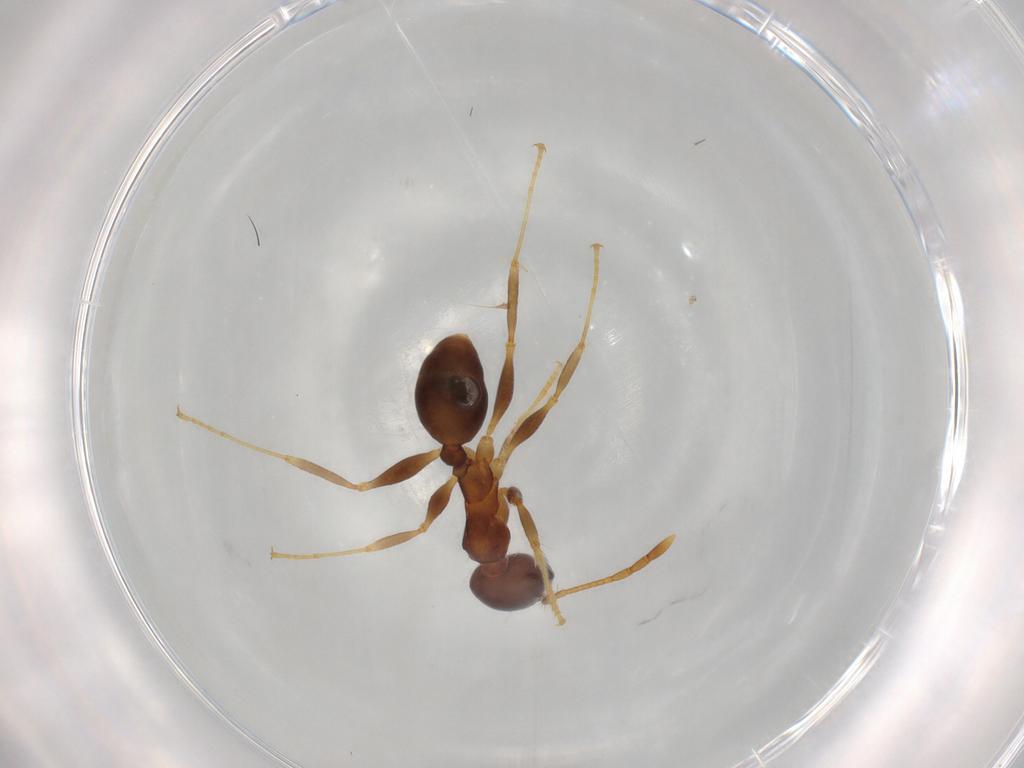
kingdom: Animalia
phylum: Arthropoda
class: Insecta
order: Hymenoptera
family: Formicidae
